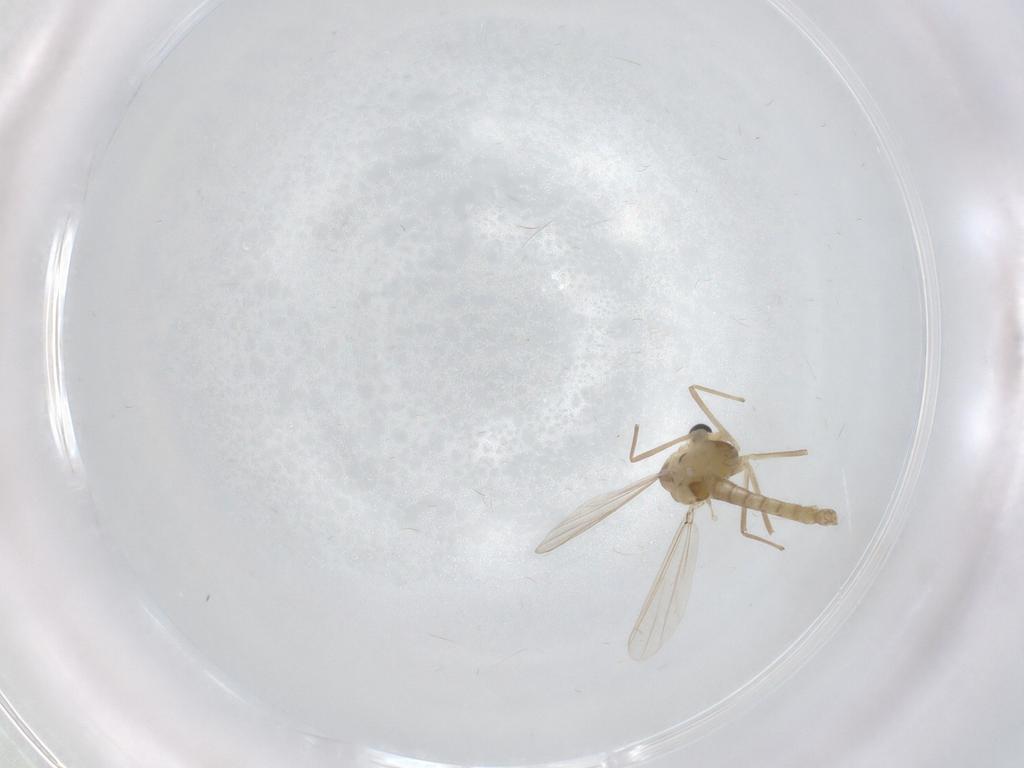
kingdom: Animalia
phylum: Arthropoda
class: Insecta
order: Diptera
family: Chironomidae
